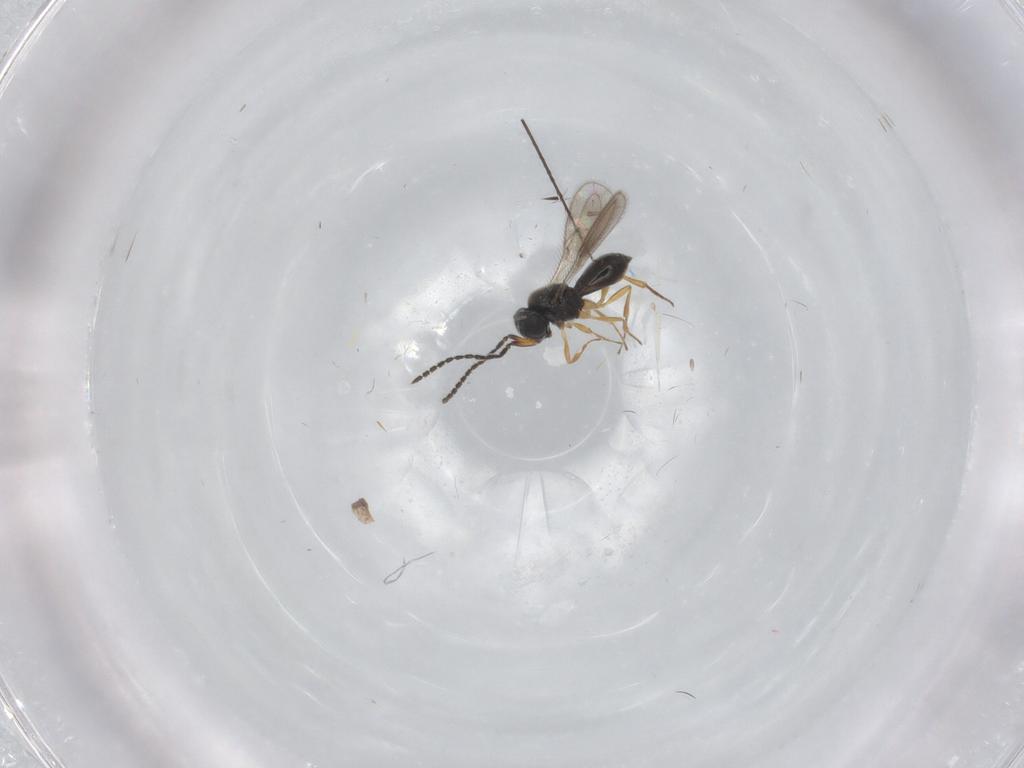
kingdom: Animalia
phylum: Arthropoda
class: Insecta
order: Hymenoptera
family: Scelionidae
